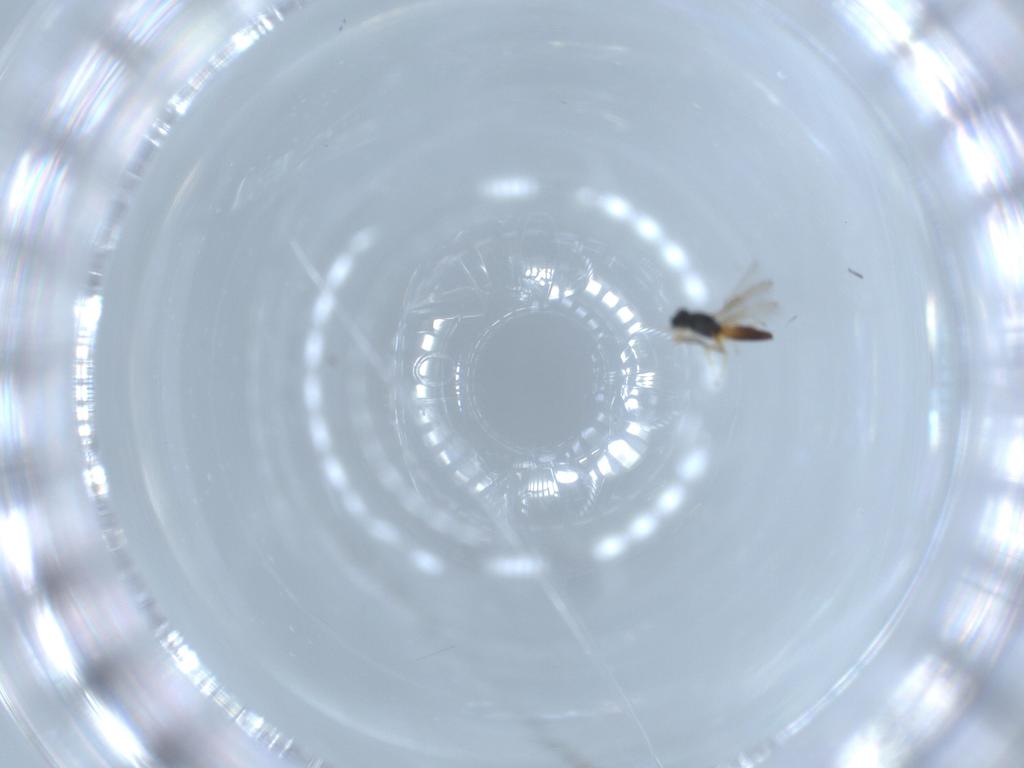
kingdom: Animalia
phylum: Arthropoda
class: Insecta
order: Hymenoptera
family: Scelionidae
